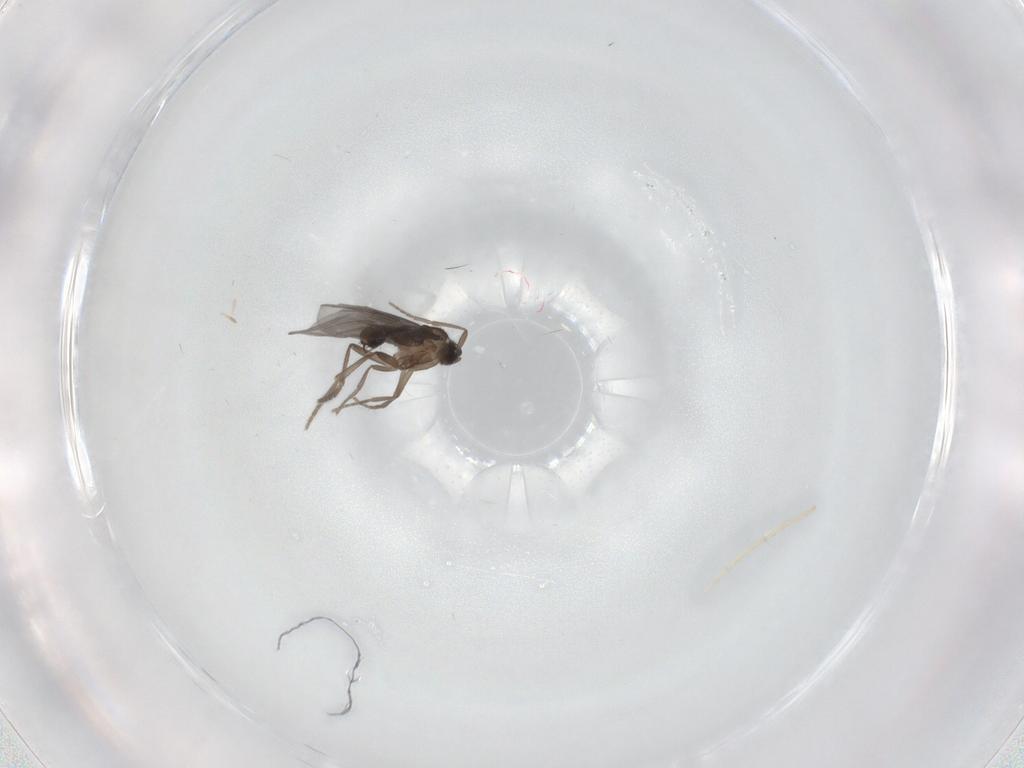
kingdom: Animalia
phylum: Arthropoda
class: Insecta
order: Diptera
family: Phoridae
